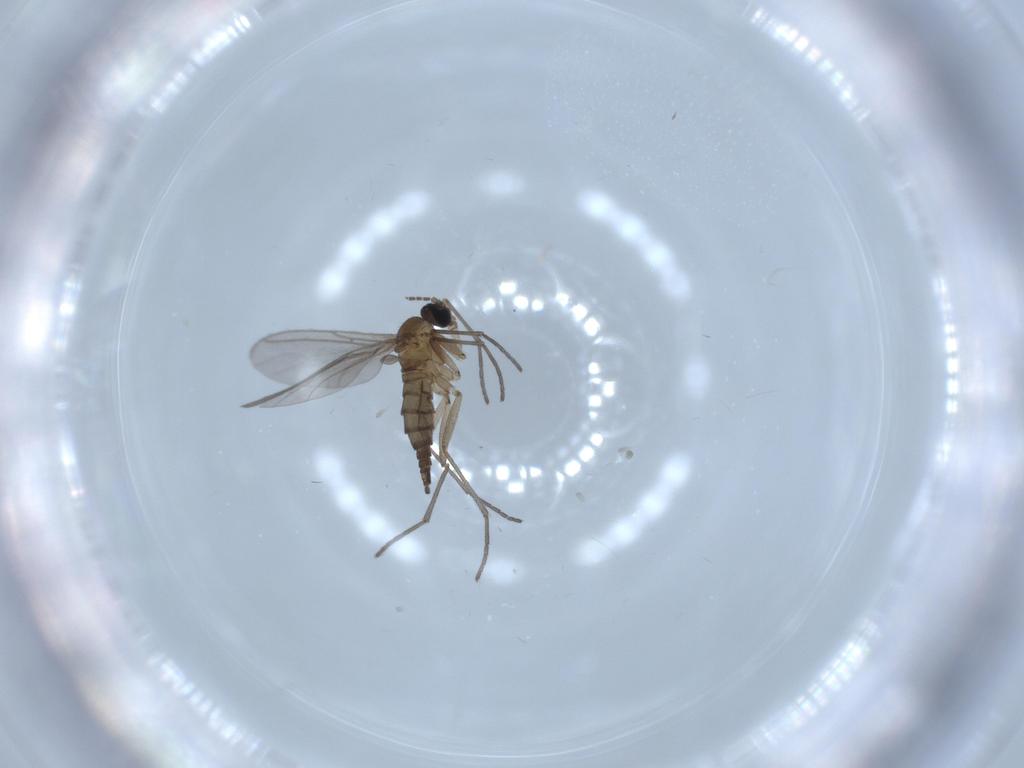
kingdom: Animalia
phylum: Arthropoda
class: Insecta
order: Diptera
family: Chironomidae
